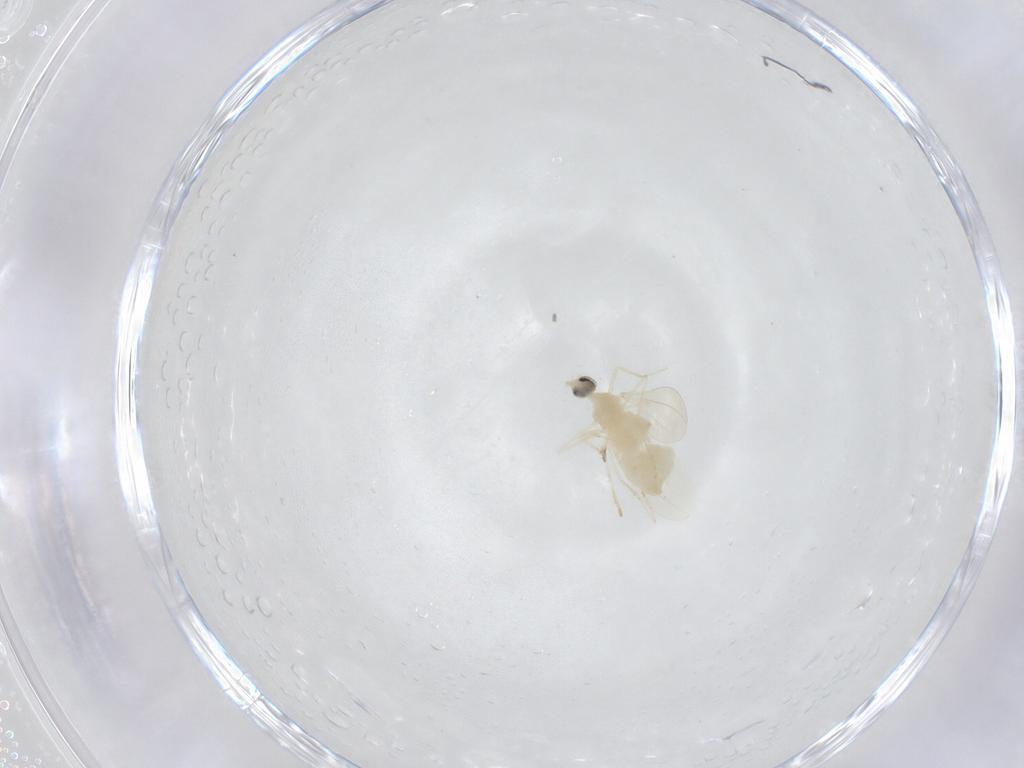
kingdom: Animalia
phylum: Arthropoda
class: Insecta
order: Diptera
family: Cecidomyiidae
